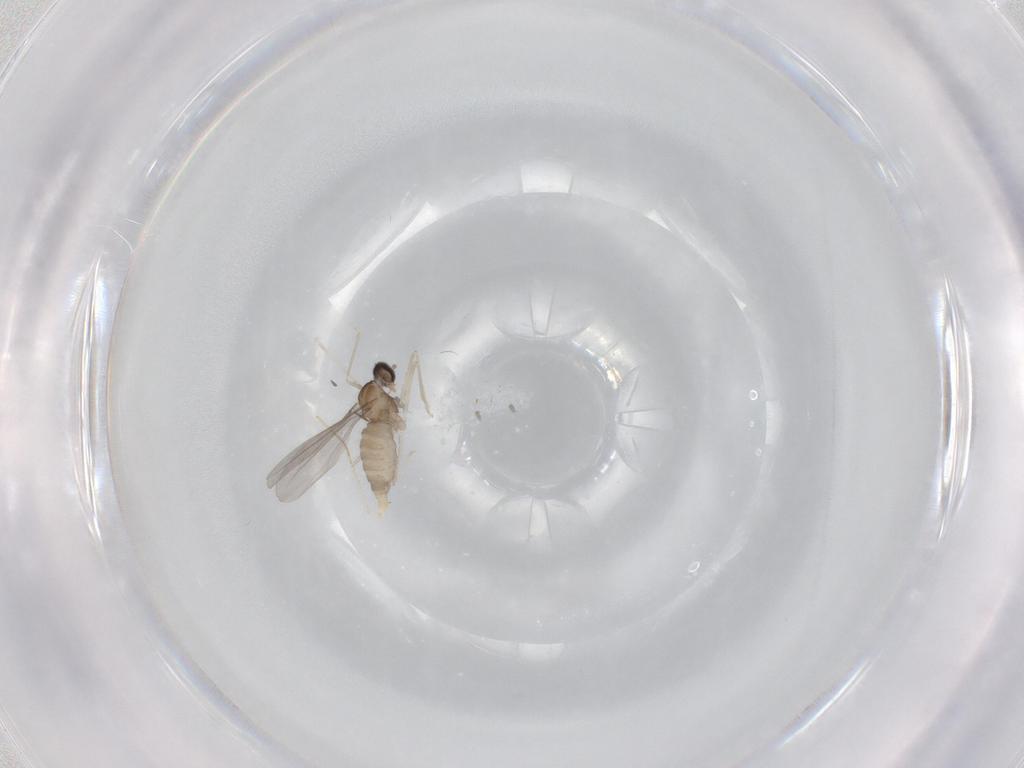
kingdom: Animalia
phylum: Arthropoda
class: Insecta
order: Diptera
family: Cecidomyiidae
